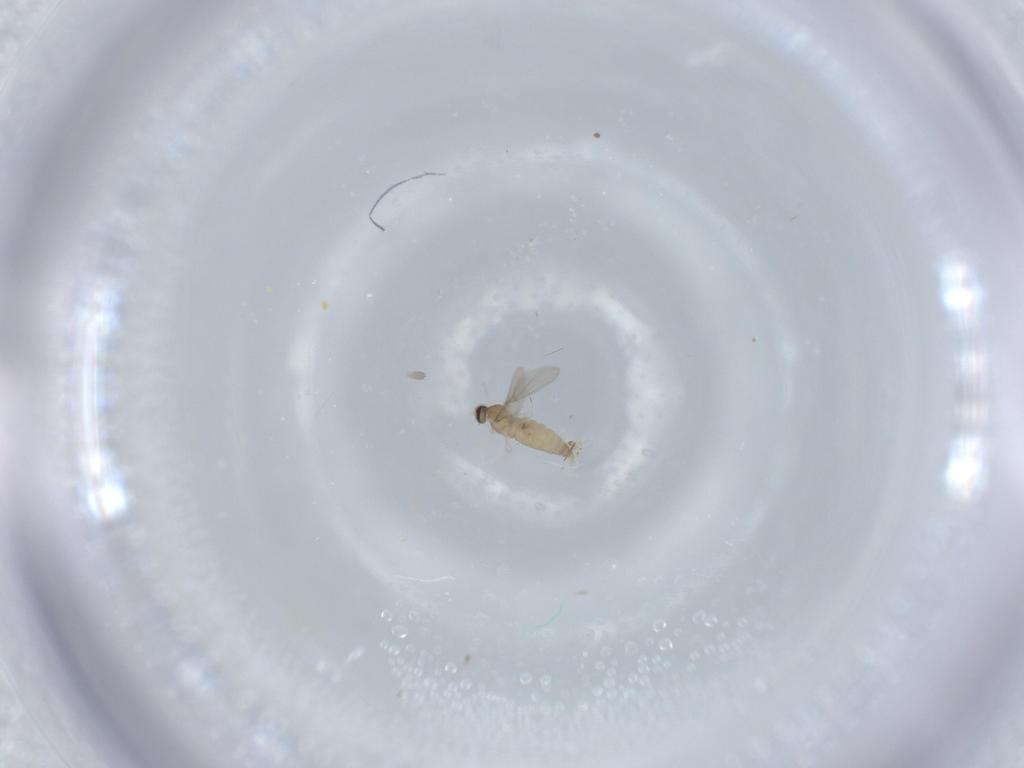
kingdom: Animalia
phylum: Arthropoda
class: Insecta
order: Diptera
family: Cecidomyiidae
